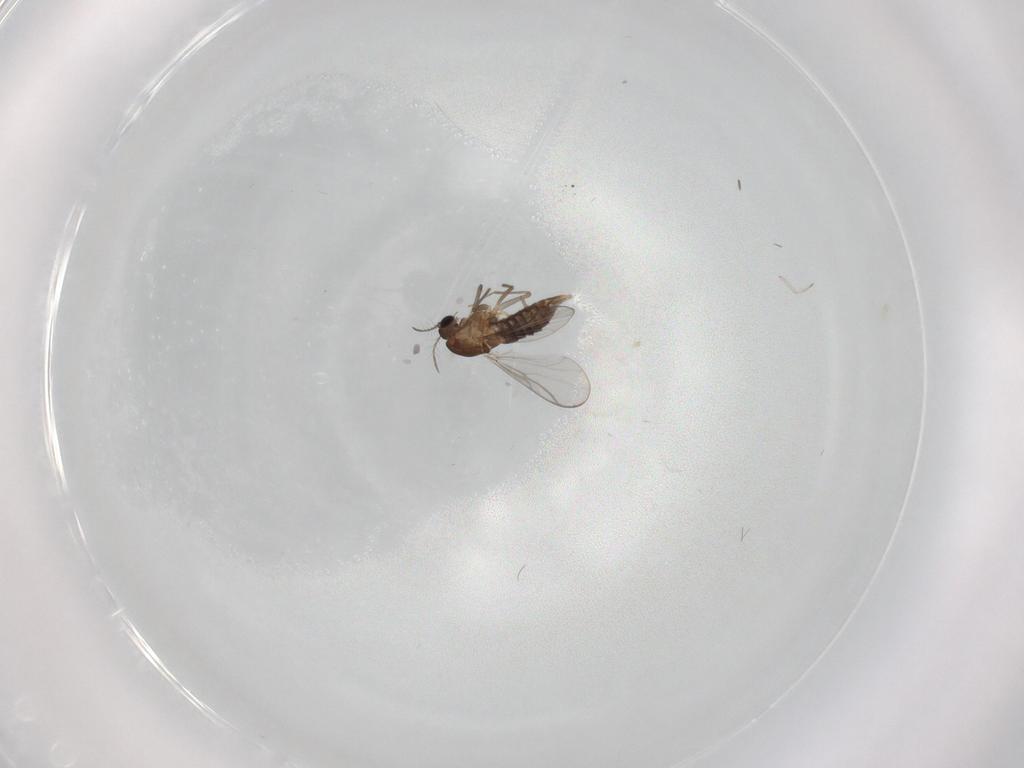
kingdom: Animalia
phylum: Arthropoda
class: Insecta
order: Diptera
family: Chironomidae
